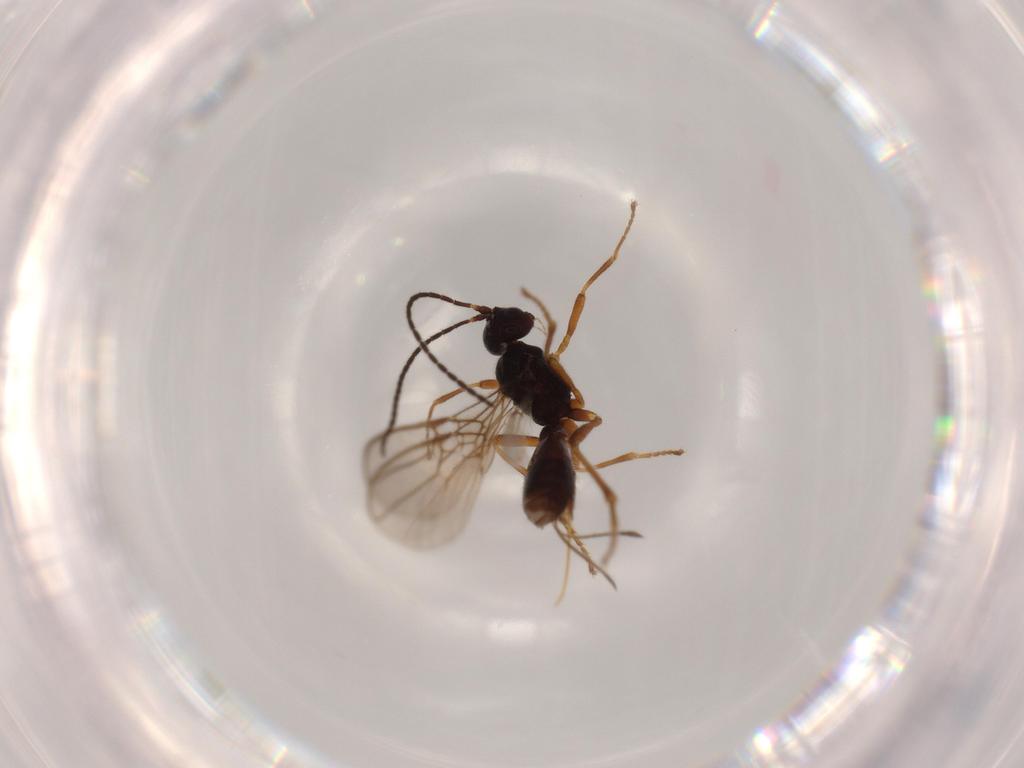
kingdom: Animalia
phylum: Arthropoda
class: Insecta
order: Hymenoptera
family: Braconidae
